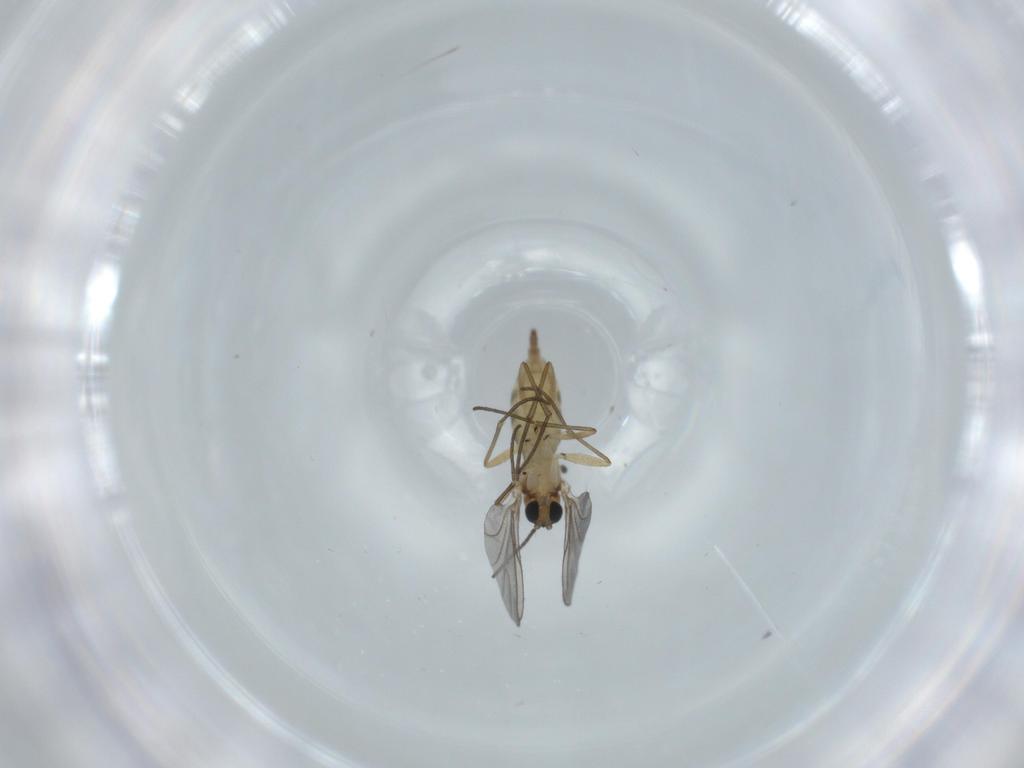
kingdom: Animalia
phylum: Arthropoda
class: Insecta
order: Diptera
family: Sciaridae
